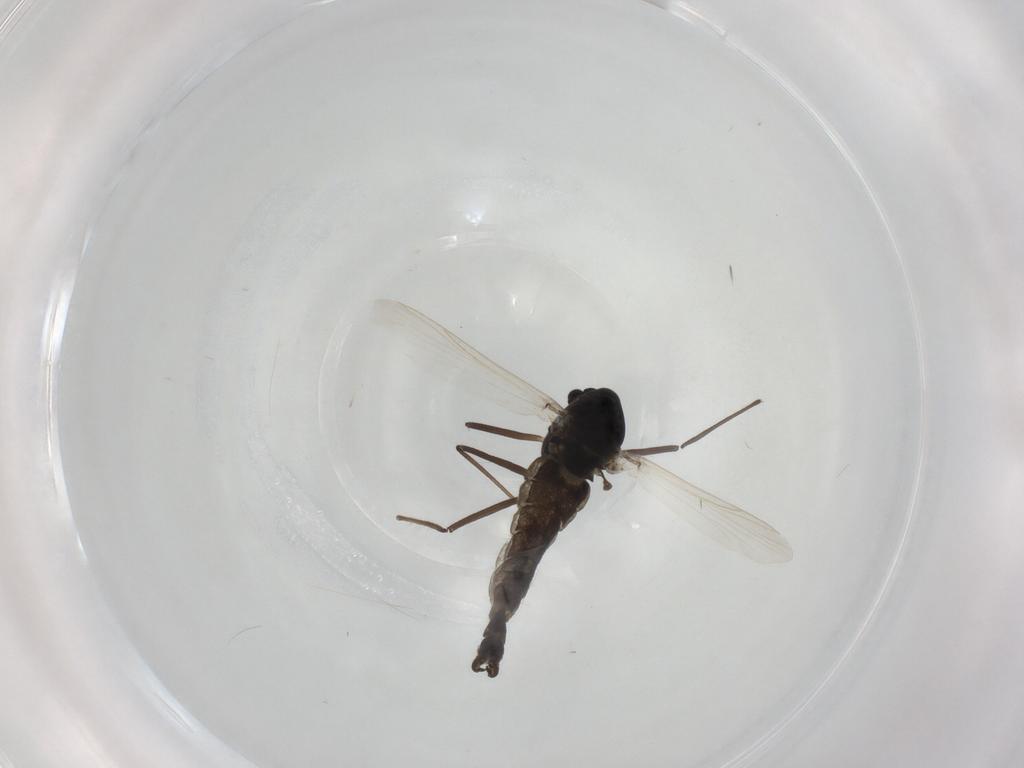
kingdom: Animalia
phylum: Arthropoda
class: Insecta
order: Diptera
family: Chironomidae
